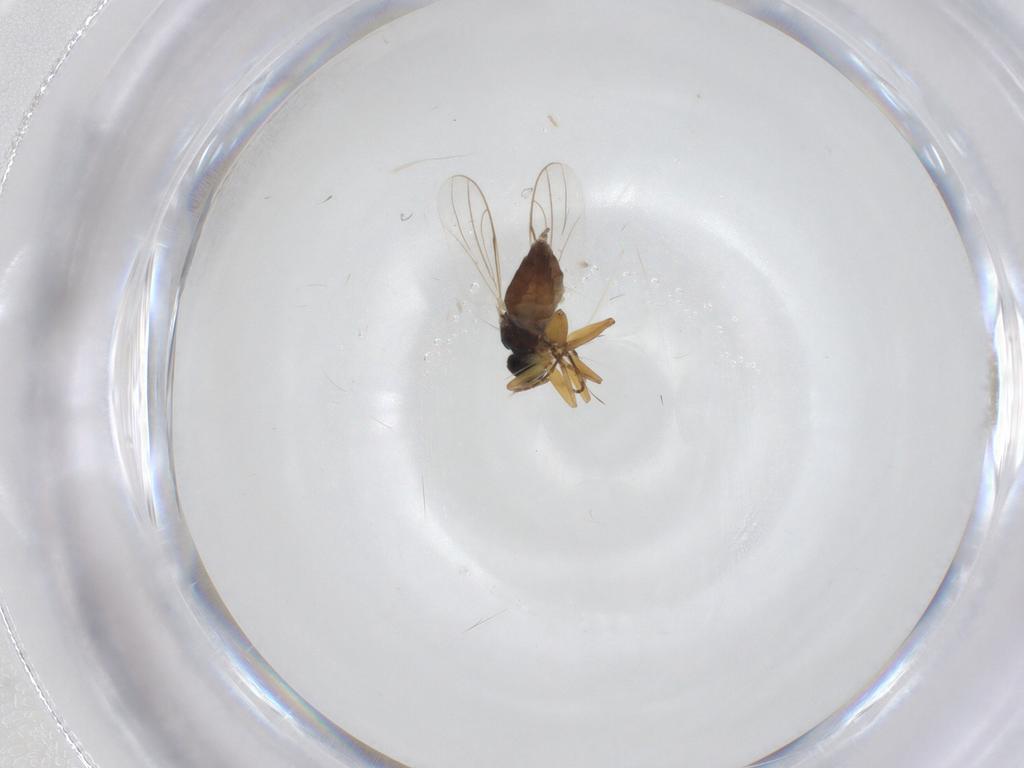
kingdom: Animalia
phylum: Arthropoda
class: Insecta
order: Diptera
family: Hybotidae
